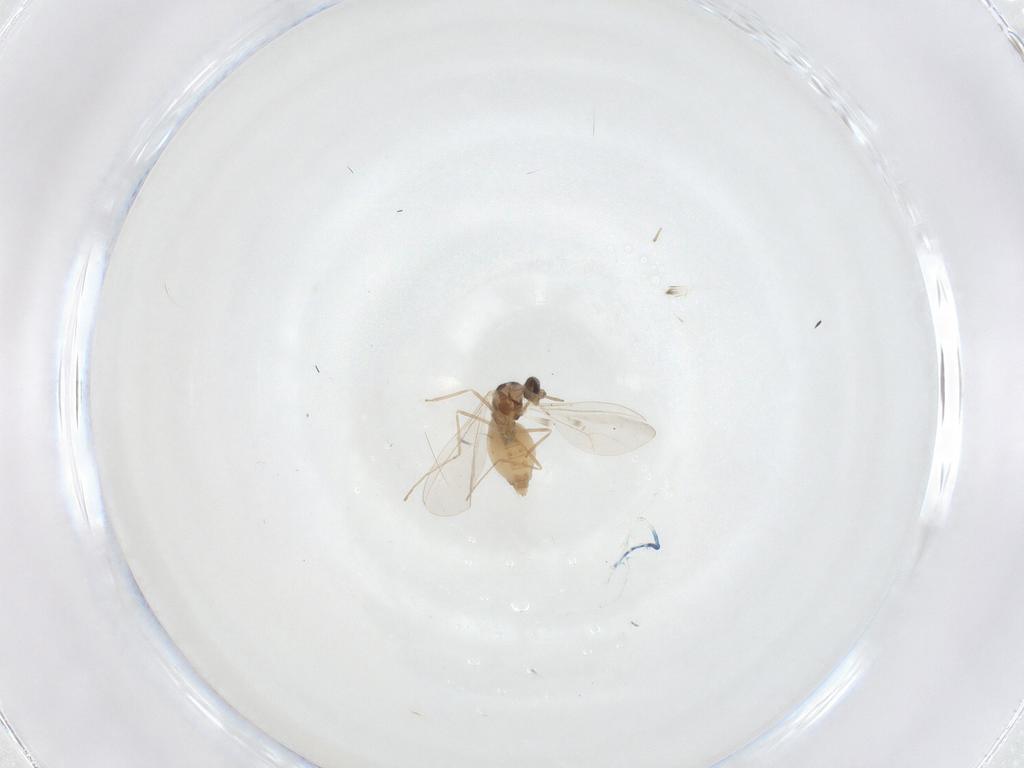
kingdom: Animalia
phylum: Arthropoda
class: Insecta
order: Diptera
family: Cecidomyiidae
